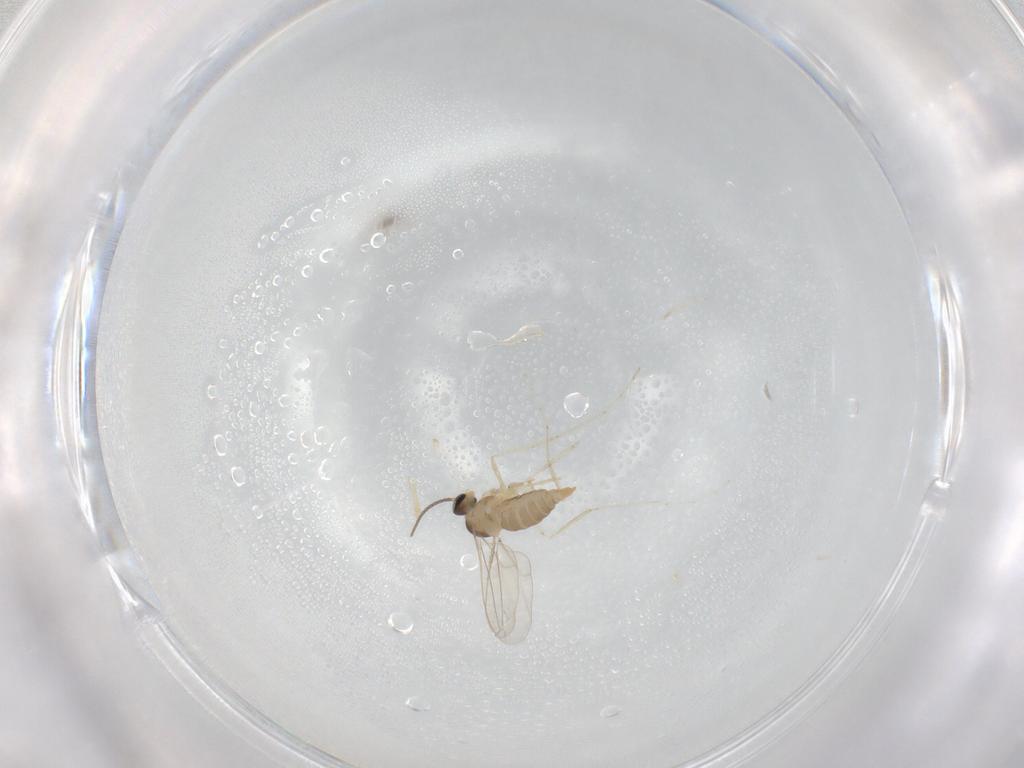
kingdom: Animalia
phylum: Arthropoda
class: Insecta
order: Diptera
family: Cecidomyiidae
